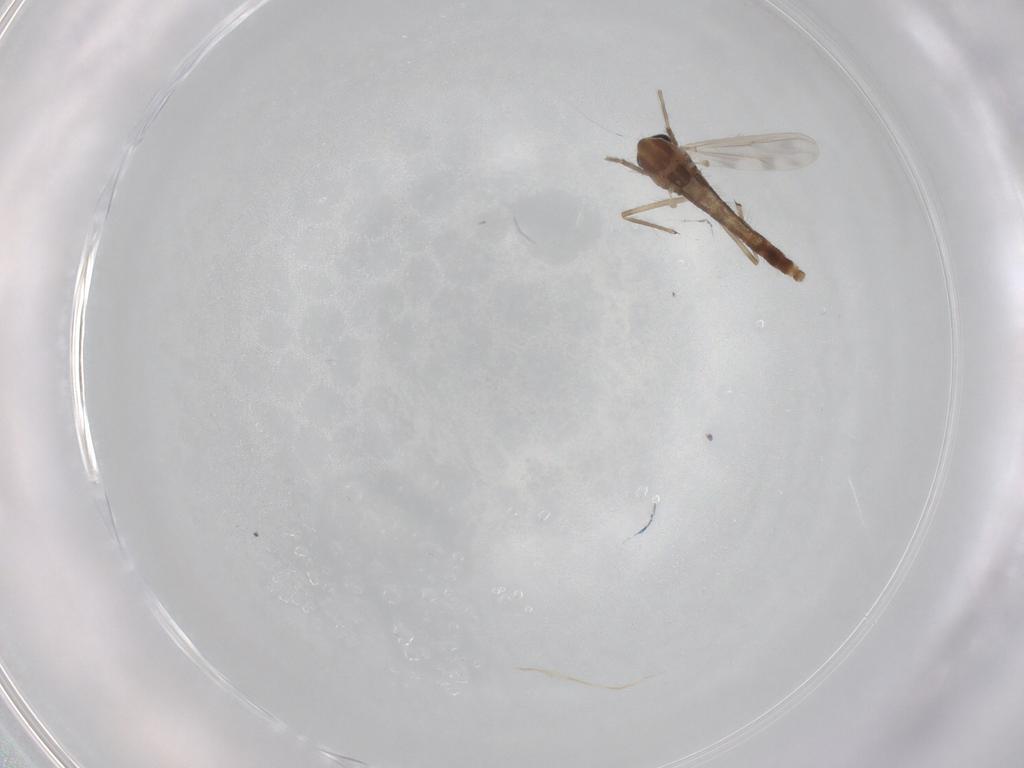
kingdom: Animalia
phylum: Arthropoda
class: Insecta
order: Diptera
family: Chironomidae
